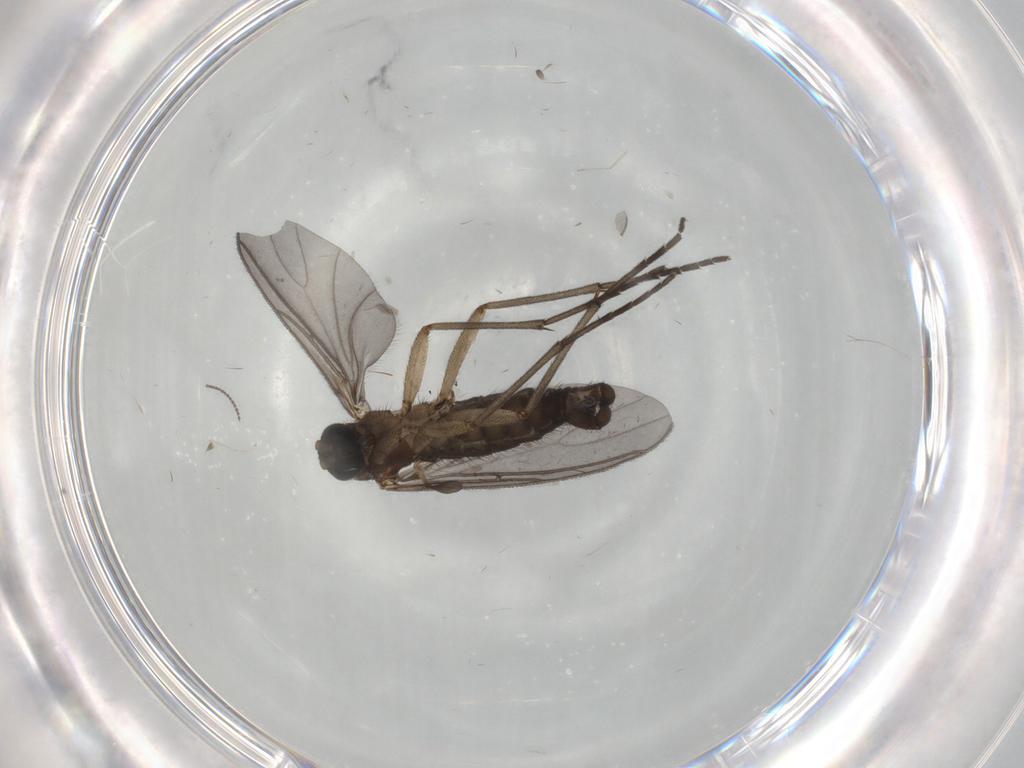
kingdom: Animalia
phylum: Arthropoda
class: Insecta
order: Diptera
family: Sciaridae
